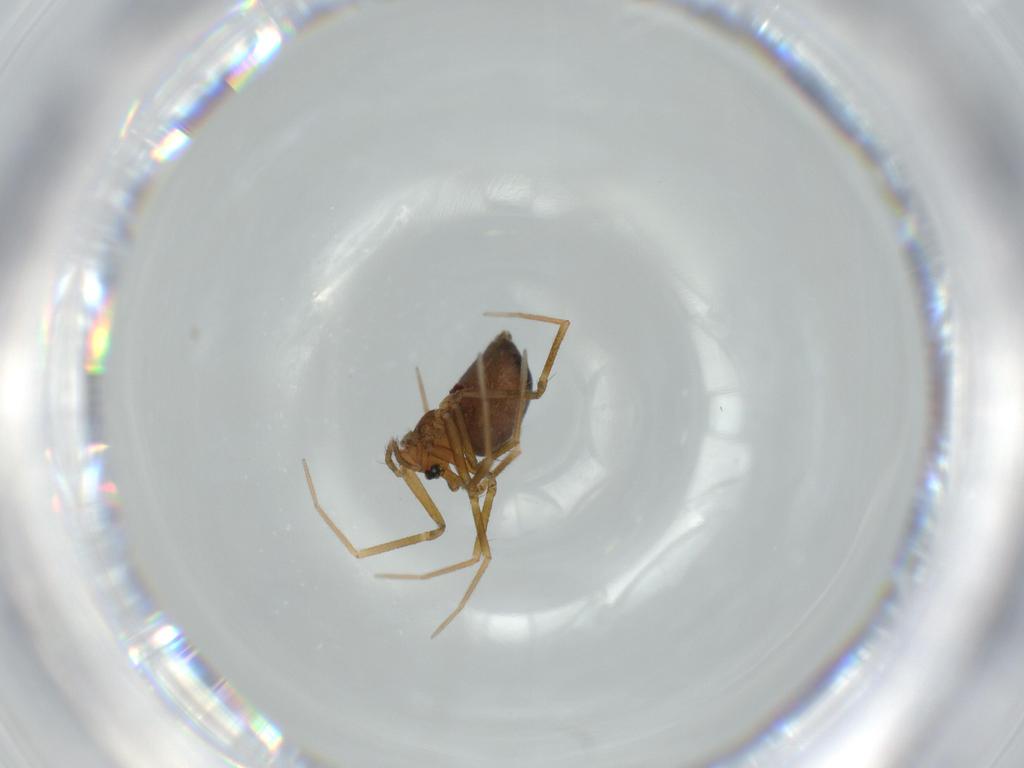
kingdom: Animalia
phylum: Arthropoda
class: Arachnida
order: Araneae
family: Linyphiidae
